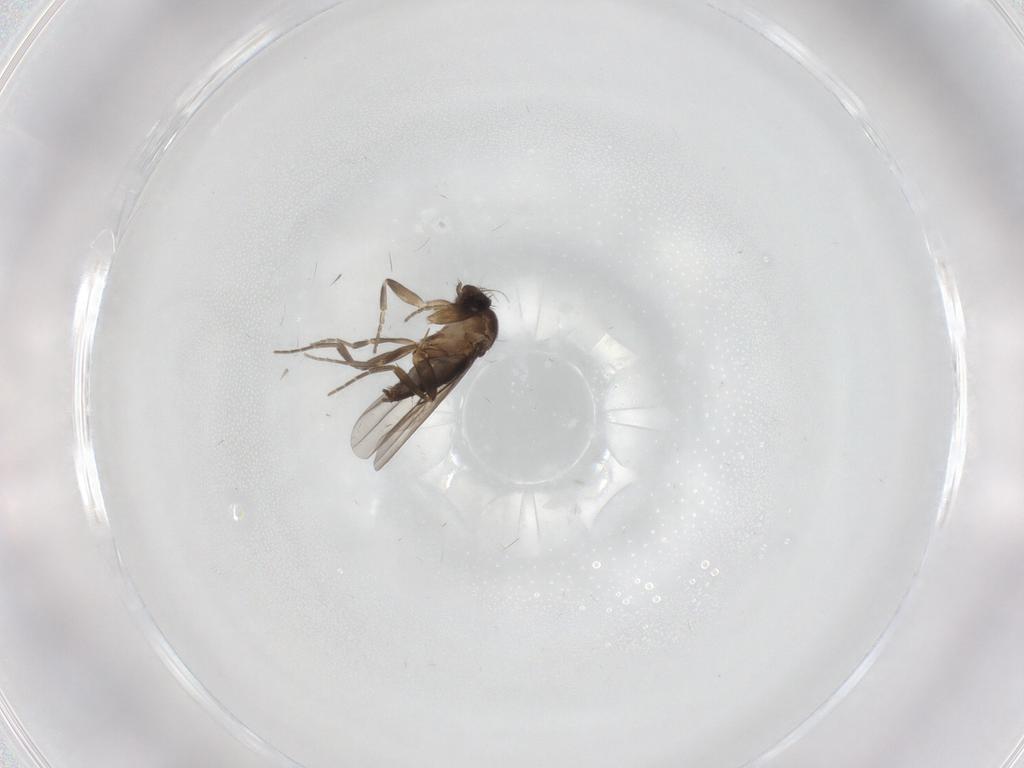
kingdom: Animalia
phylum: Arthropoda
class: Insecta
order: Diptera
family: Phoridae
